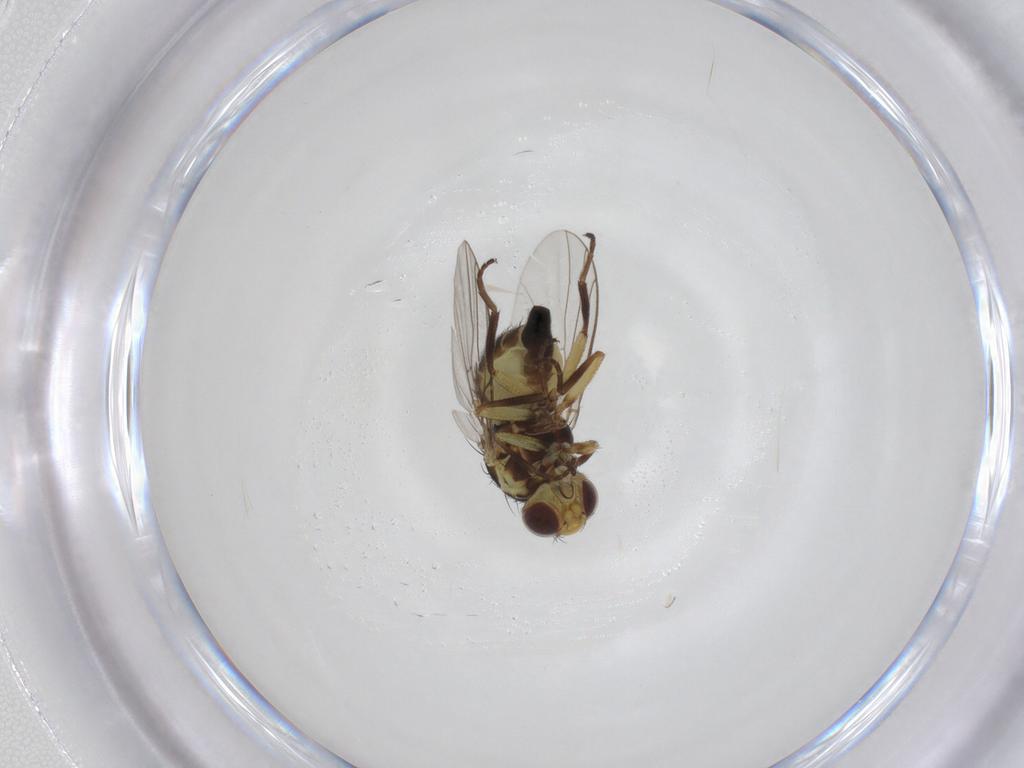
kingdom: Animalia
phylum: Arthropoda
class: Insecta
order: Diptera
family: Agromyzidae
